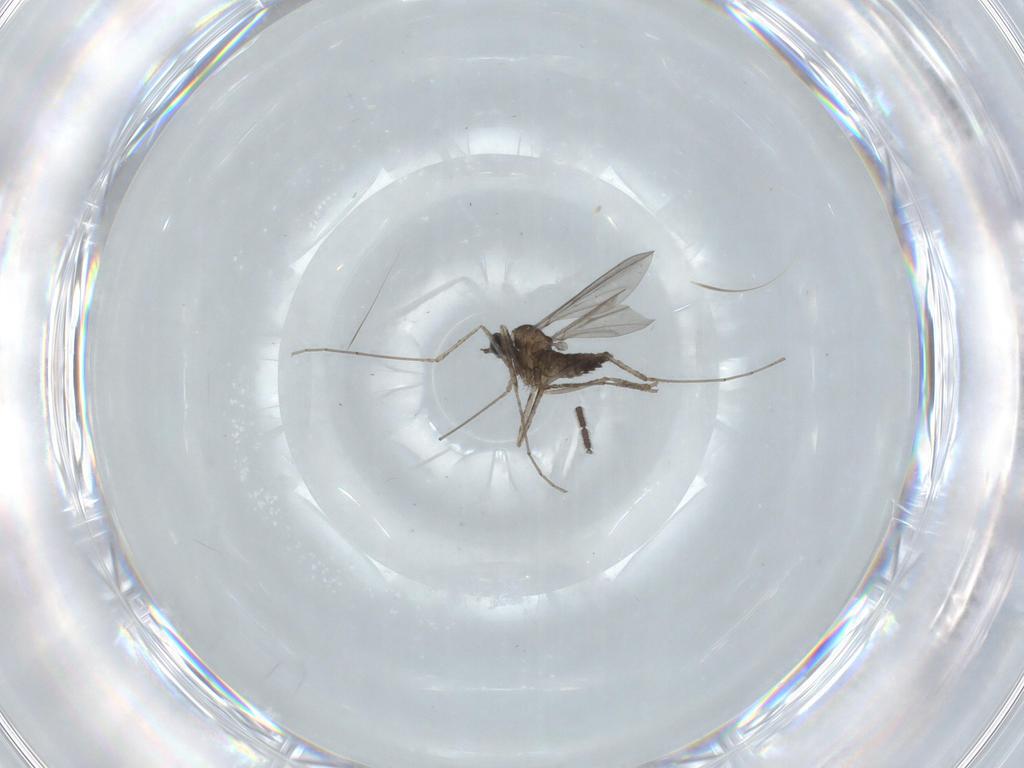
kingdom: Animalia
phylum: Arthropoda
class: Insecta
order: Diptera
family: Cecidomyiidae
